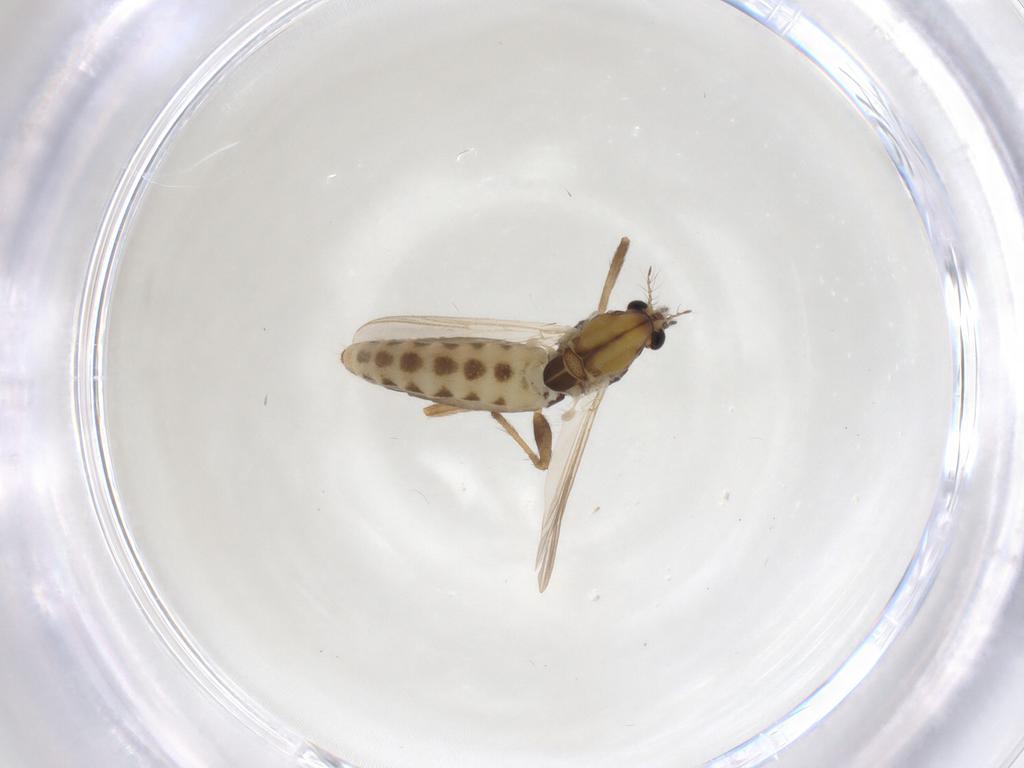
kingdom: Animalia
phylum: Arthropoda
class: Insecta
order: Diptera
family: Chironomidae
